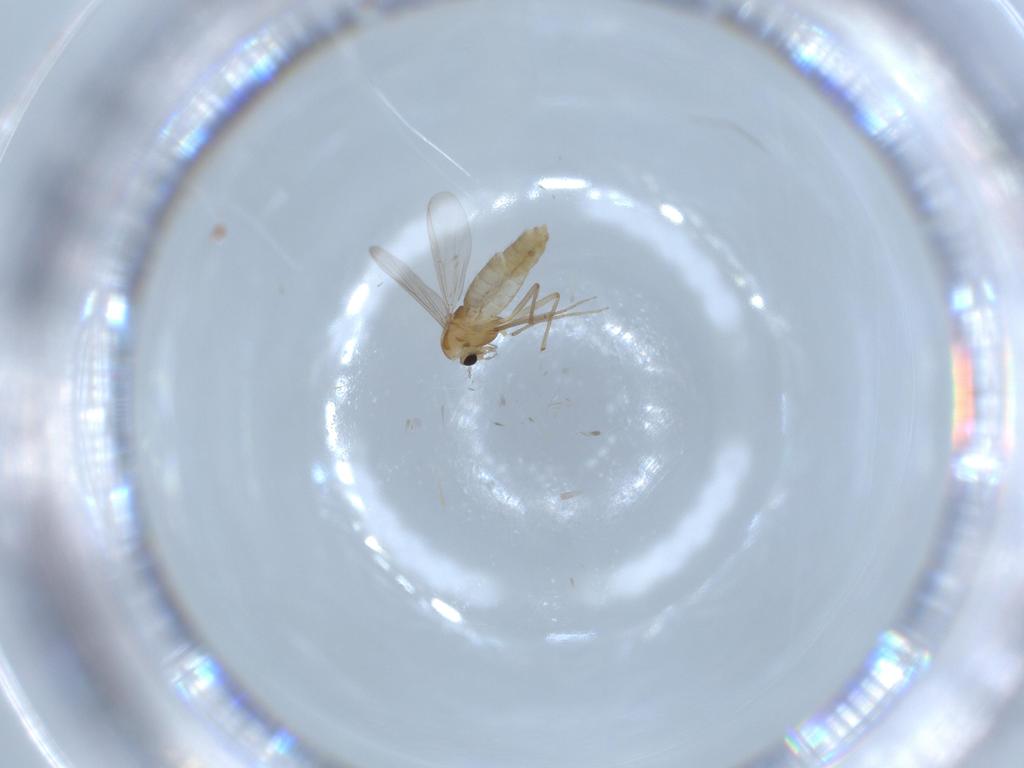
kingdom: Animalia
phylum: Arthropoda
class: Insecta
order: Diptera
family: Chironomidae
